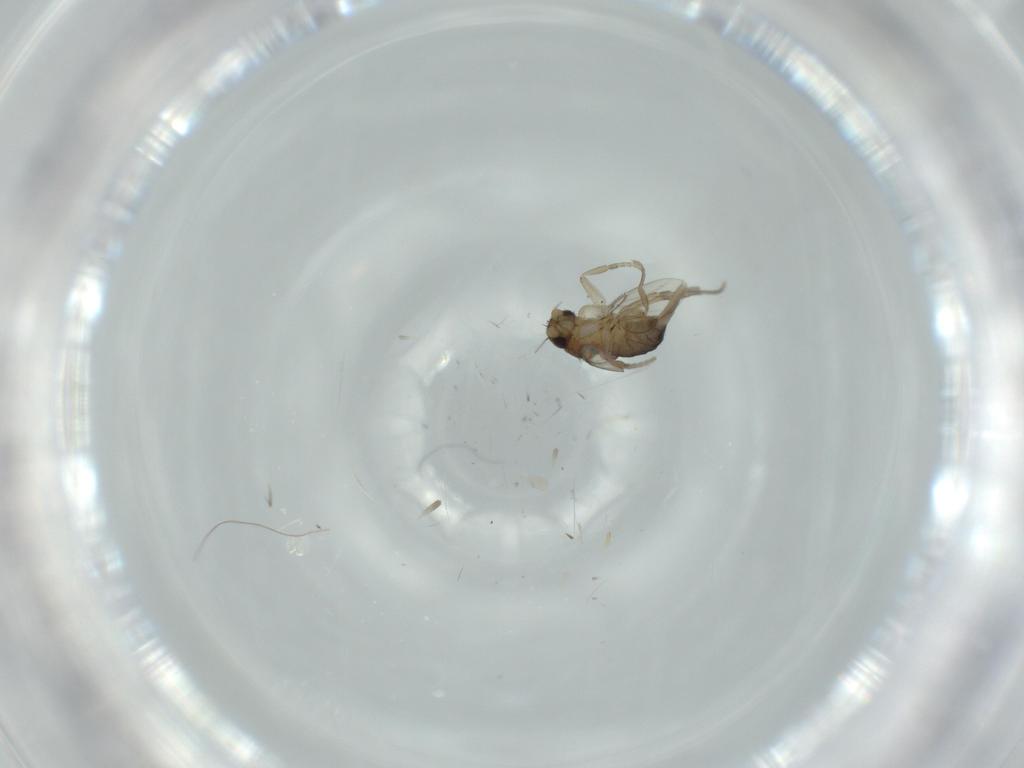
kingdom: Animalia
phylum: Arthropoda
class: Insecta
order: Diptera
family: Phoridae
